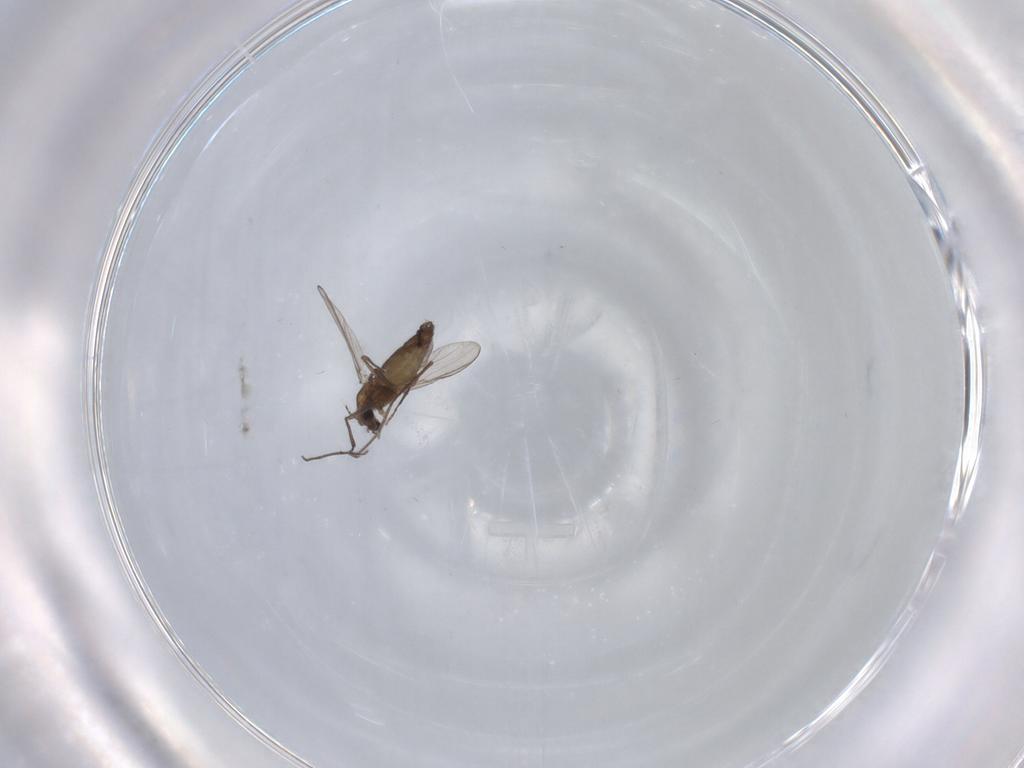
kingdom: Animalia
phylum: Arthropoda
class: Insecta
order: Diptera
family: Chironomidae
